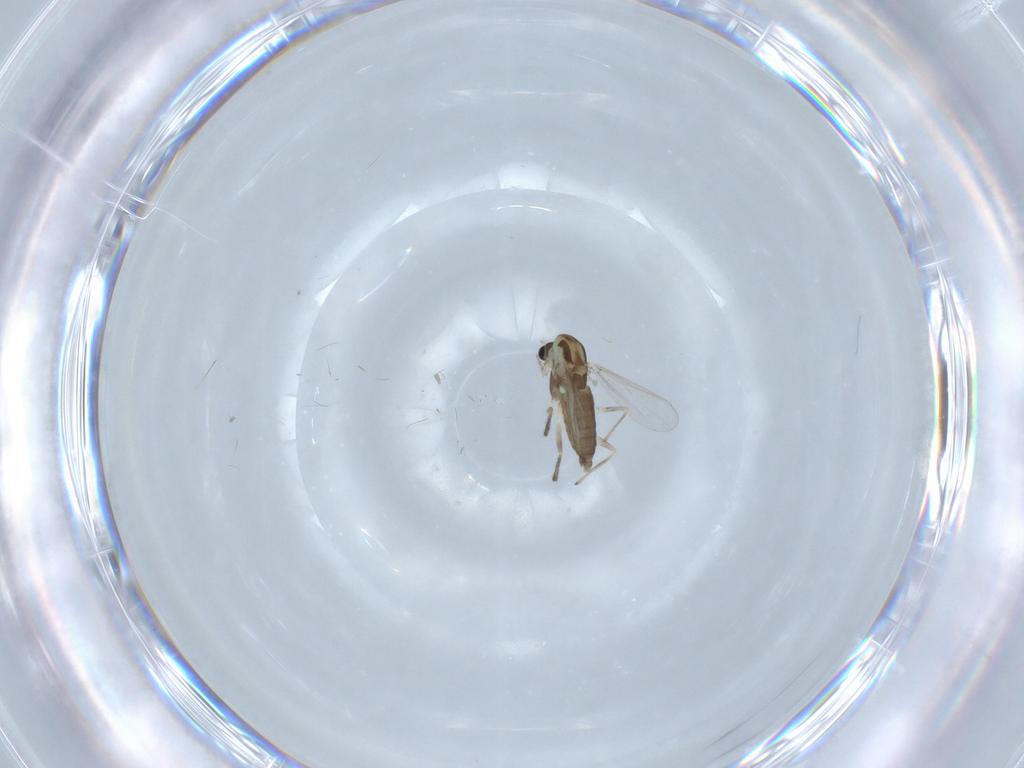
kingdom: Animalia
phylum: Arthropoda
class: Insecta
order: Diptera
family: Chironomidae
